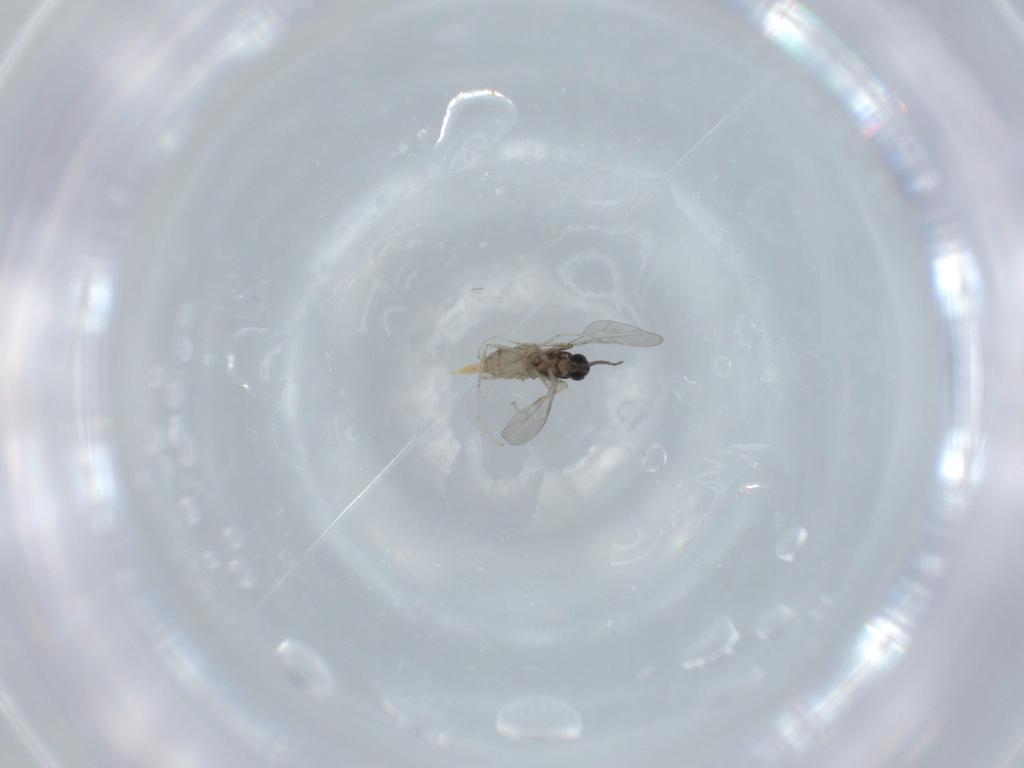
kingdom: Animalia
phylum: Arthropoda
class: Insecta
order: Diptera
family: Cecidomyiidae
